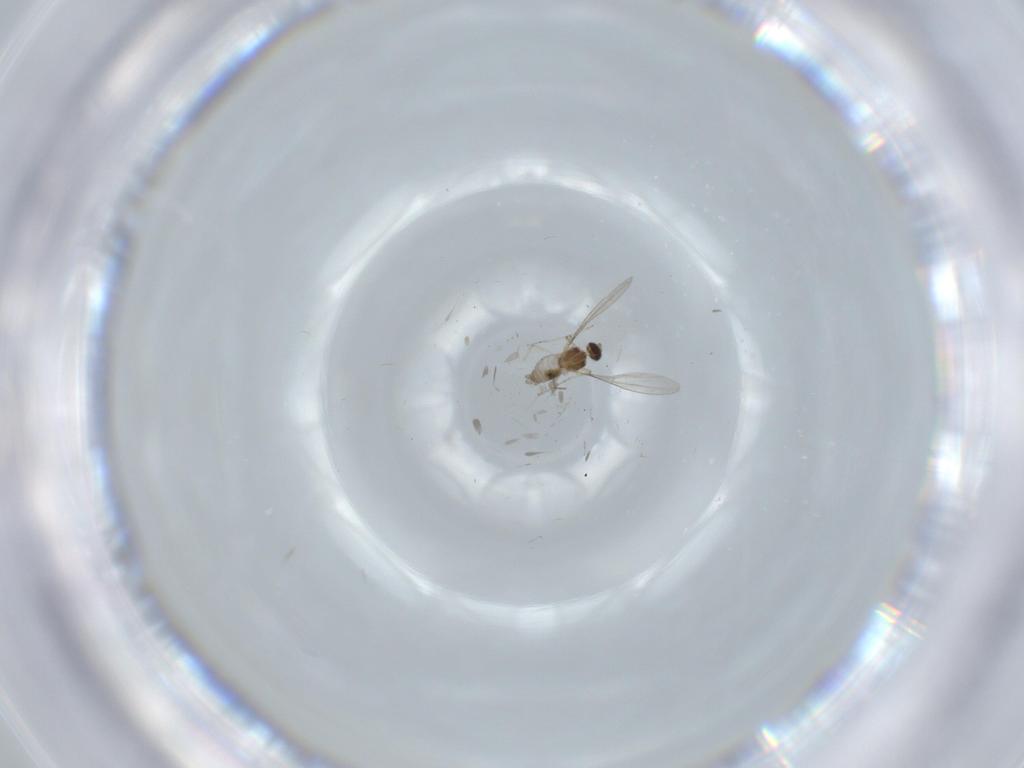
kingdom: Animalia
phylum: Arthropoda
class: Insecta
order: Diptera
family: Cecidomyiidae
